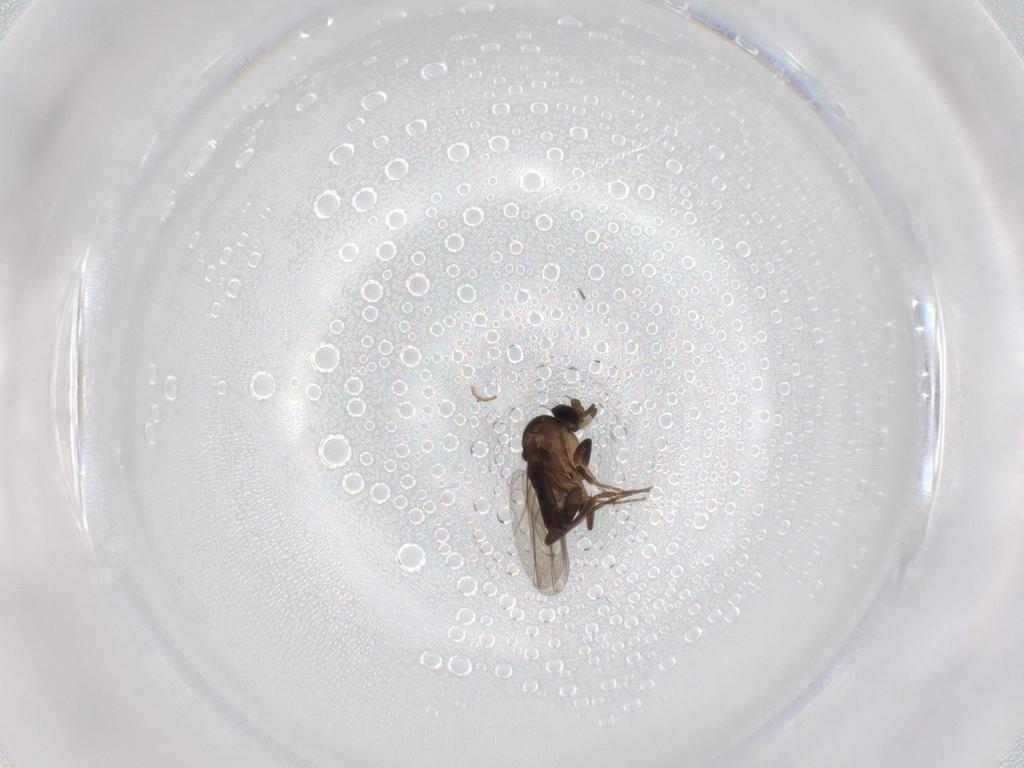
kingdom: Animalia
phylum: Arthropoda
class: Insecta
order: Diptera
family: Phoridae
